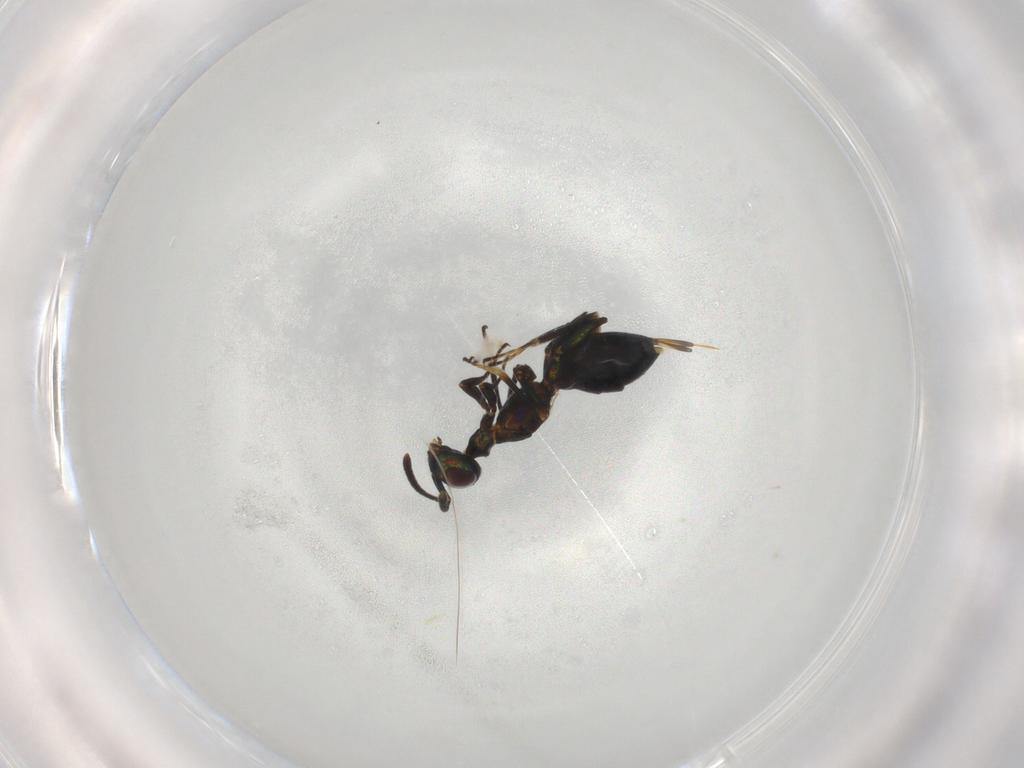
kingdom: Animalia
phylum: Arthropoda
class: Insecta
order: Hymenoptera
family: Eupelmidae
